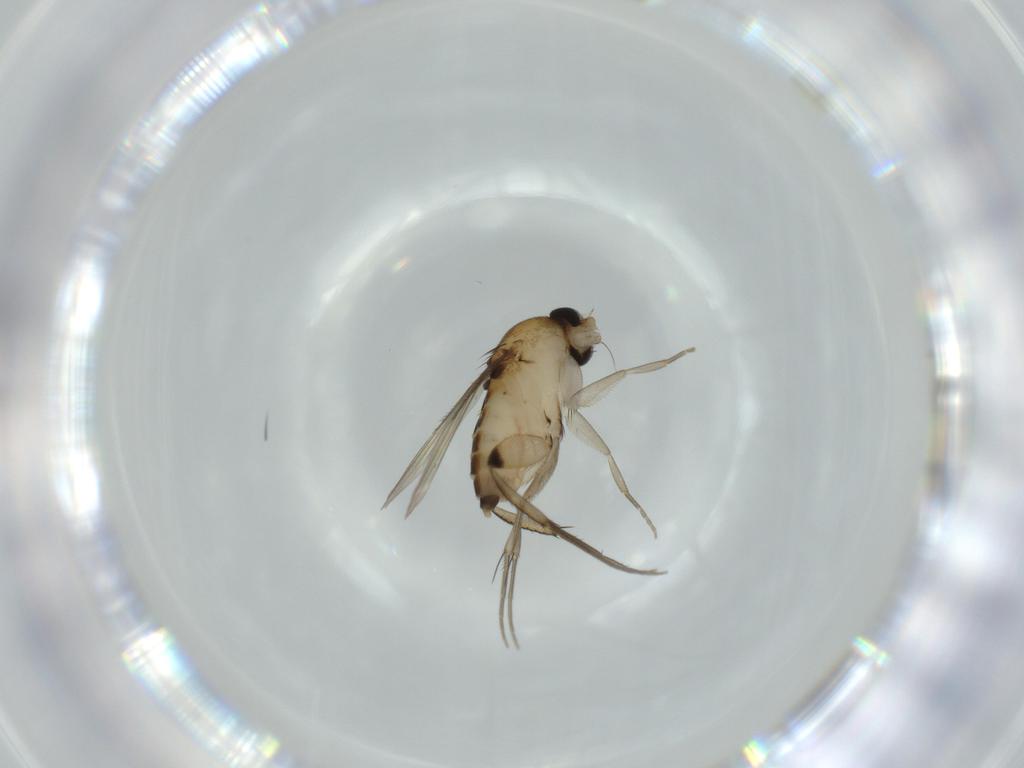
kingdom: Animalia
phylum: Arthropoda
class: Insecta
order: Diptera
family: Phoridae
